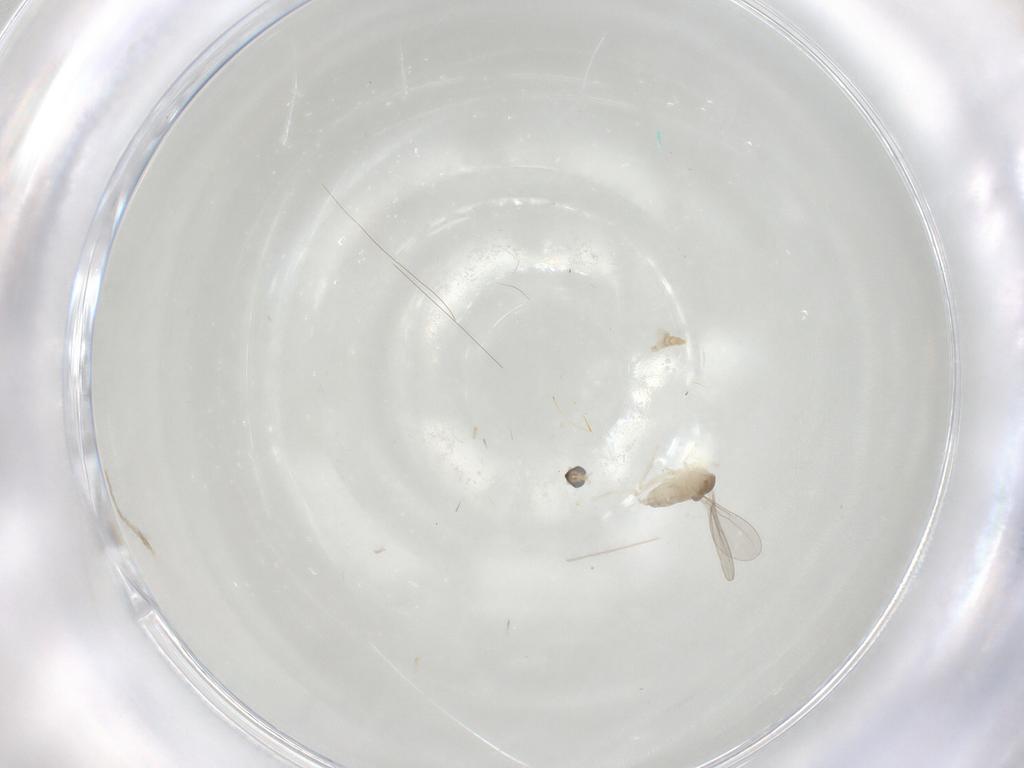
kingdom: Animalia
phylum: Arthropoda
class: Insecta
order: Diptera
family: Cecidomyiidae
